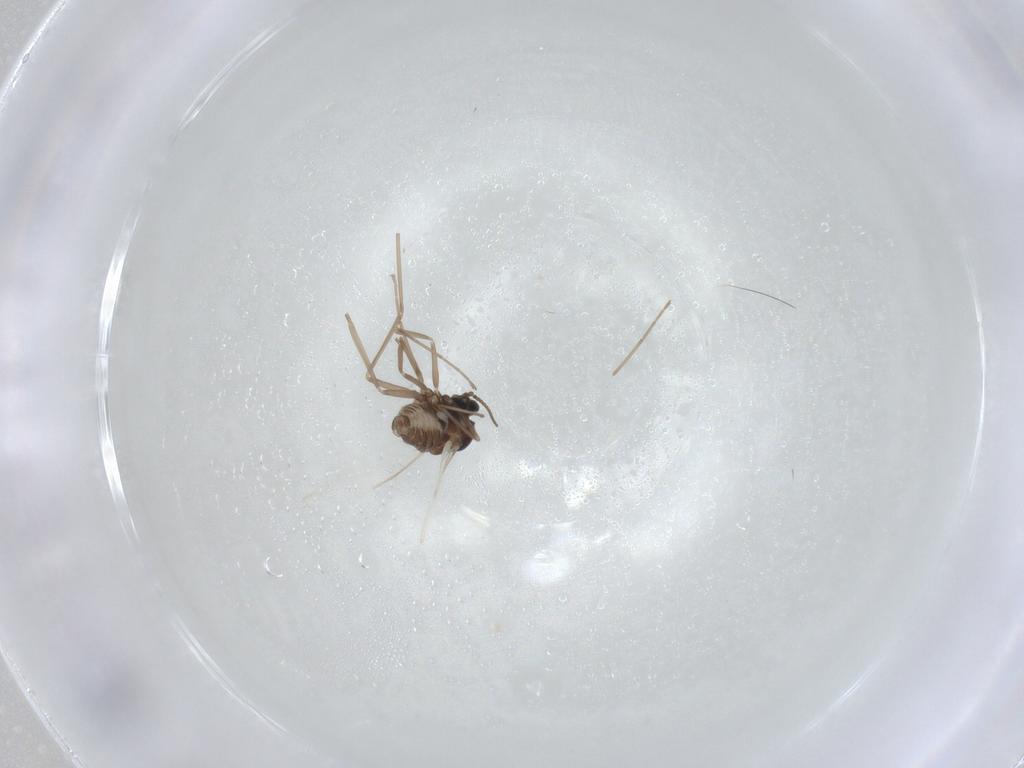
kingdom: Animalia
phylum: Arthropoda
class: Insecta
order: Diptera
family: Cecidomyiidae
